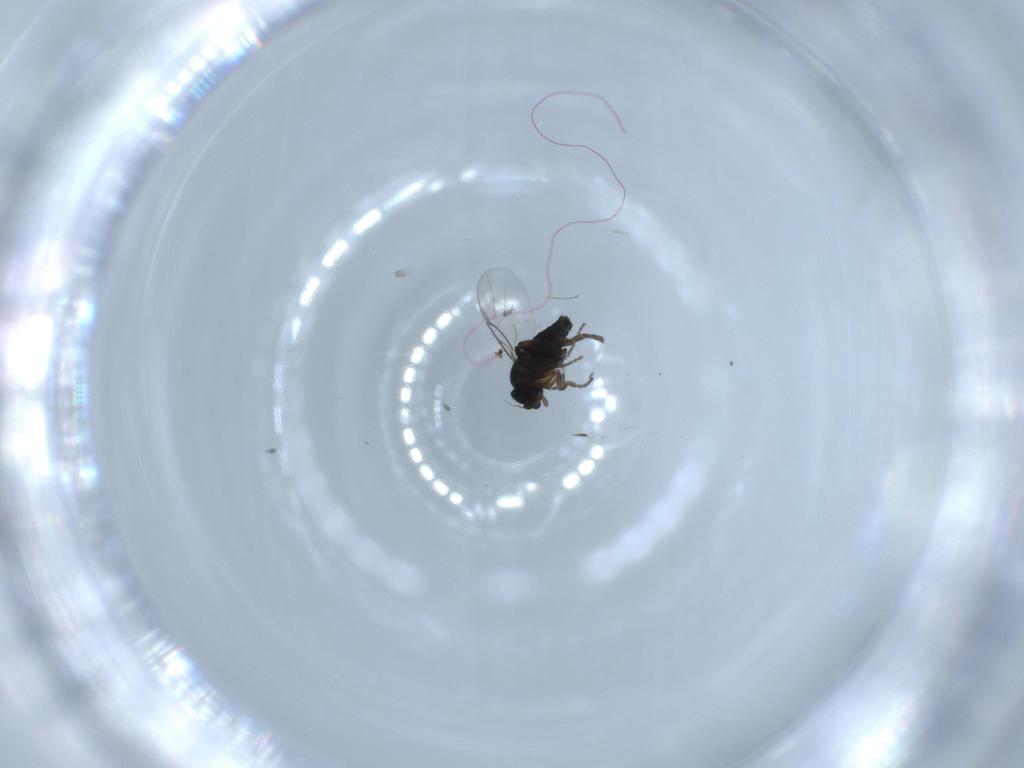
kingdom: Animalia
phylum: Arthropoda
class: Insecta
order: Diptera
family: Phoridae
